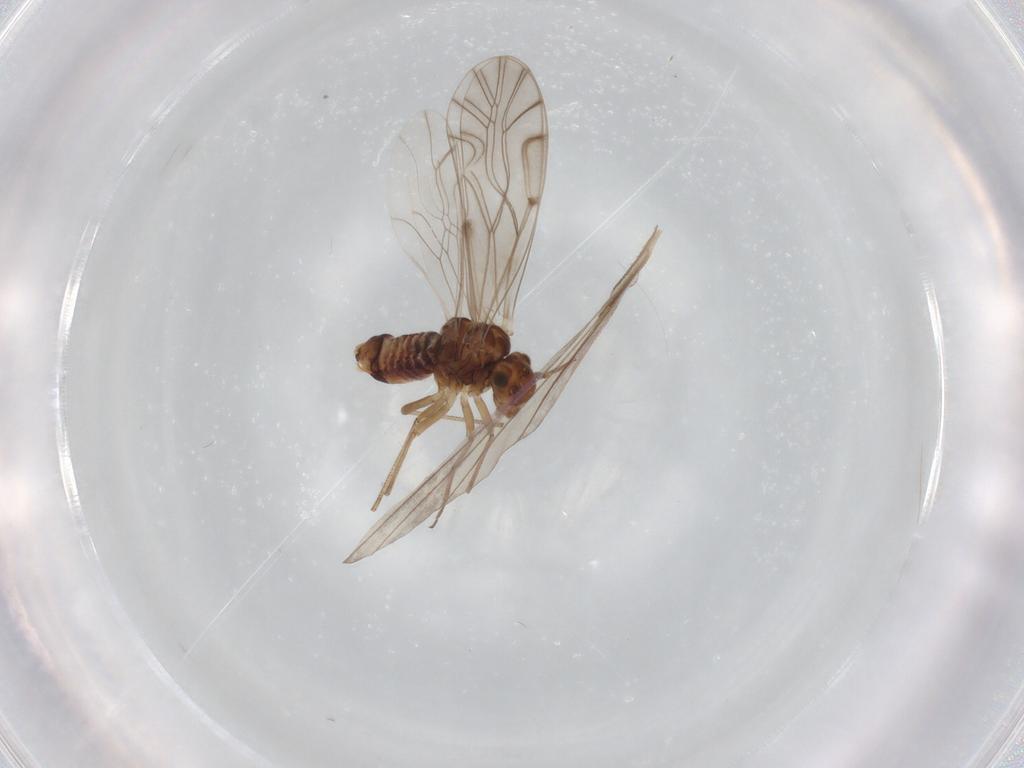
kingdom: Animalia
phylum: Arthropoda
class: Insecta
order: Psocodea
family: Lachesillidae
